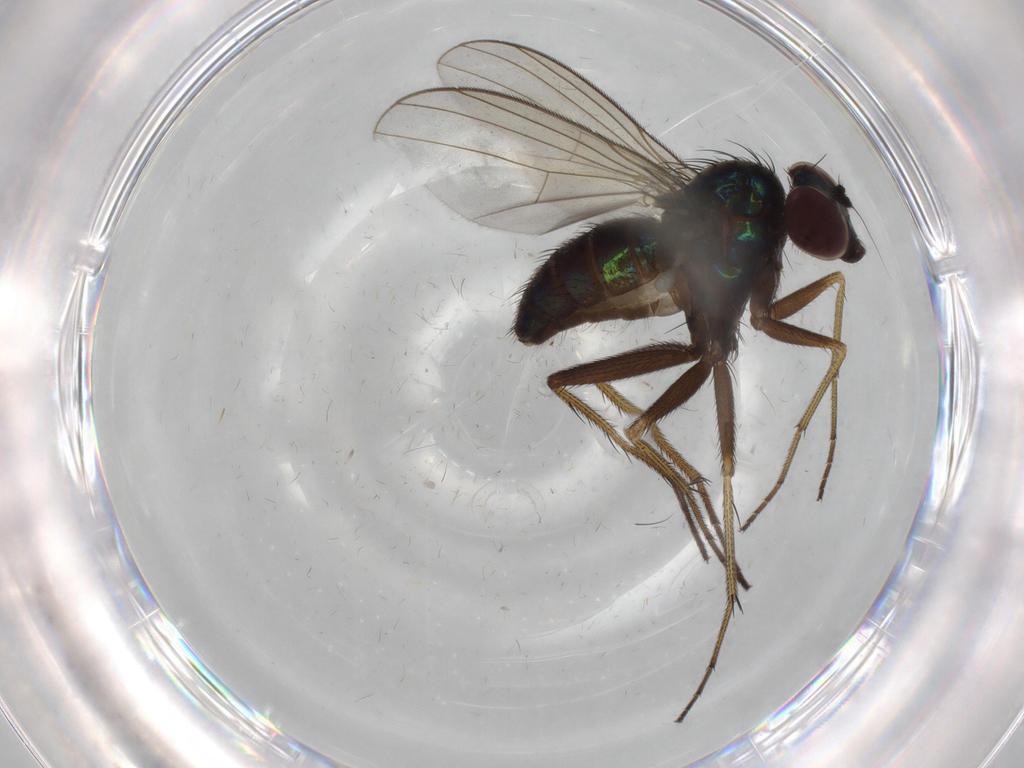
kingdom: Animalia
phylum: Arthropoda
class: Insecta
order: Diptera
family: Dolichopodidae
